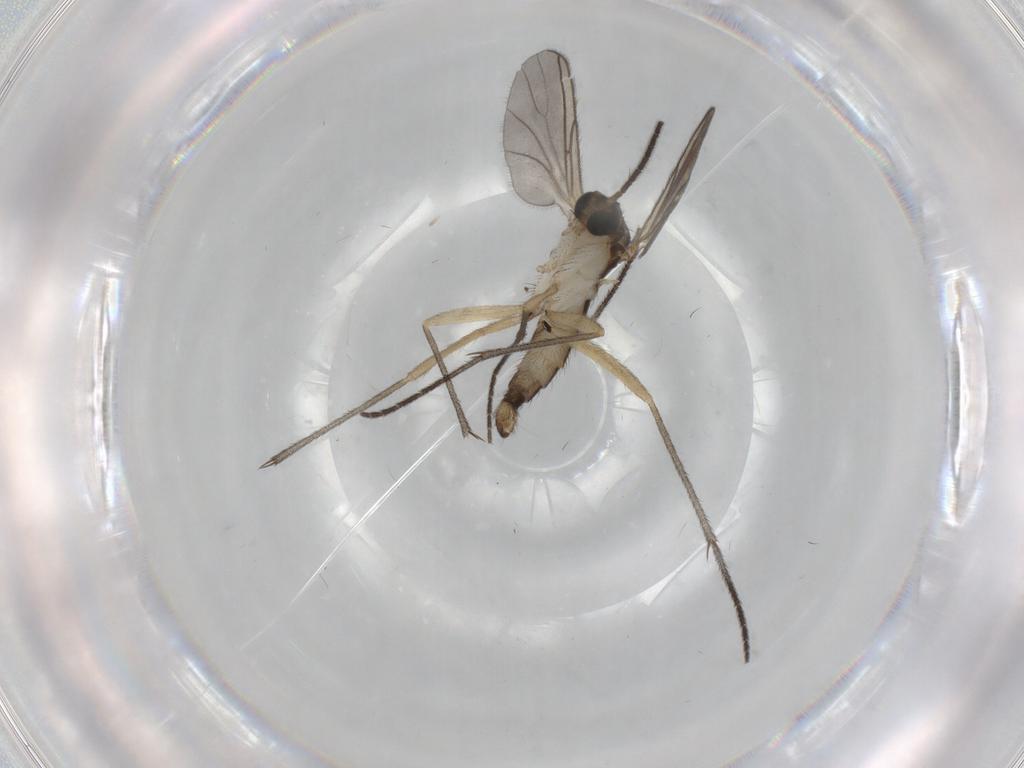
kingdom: Animalia
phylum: Arthropoda
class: Insecta
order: Diptera
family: Sciaridae
